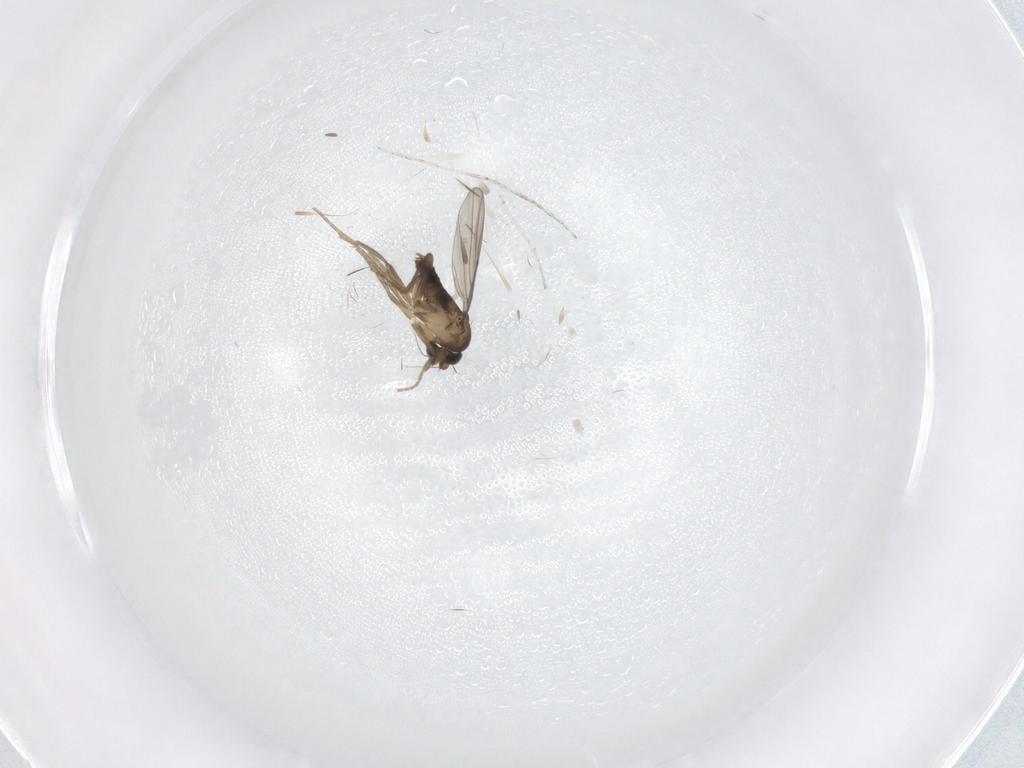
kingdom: Animalia
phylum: Arthropoda
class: Insecta
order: Diptera
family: Phoridae
